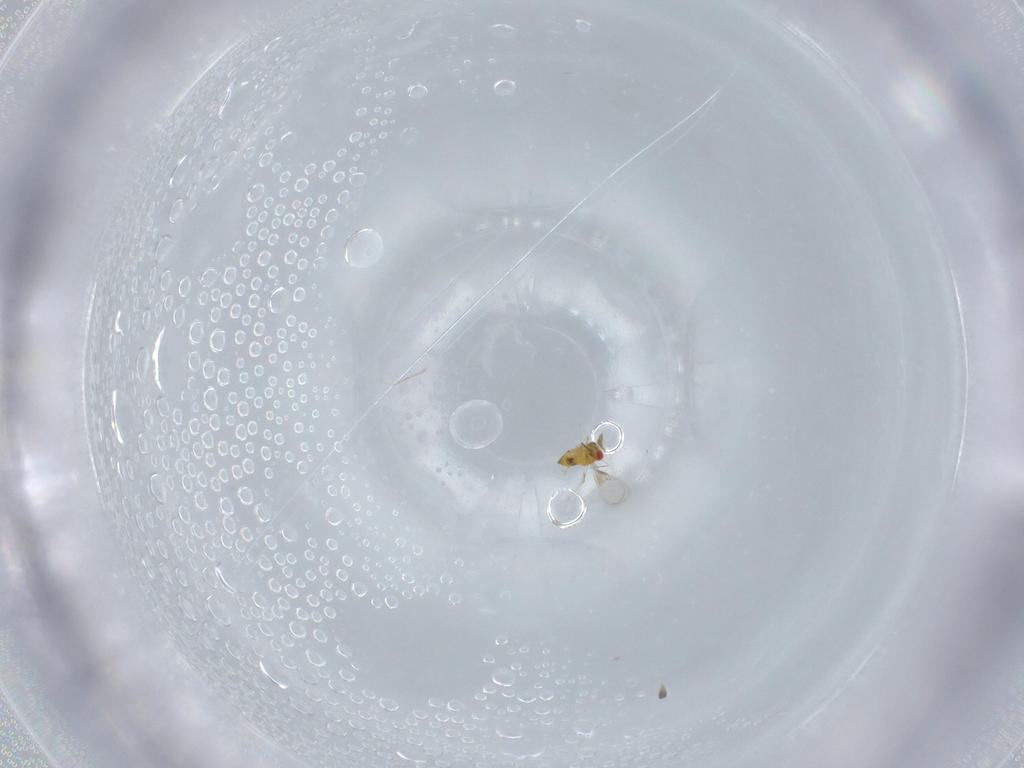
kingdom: Animalia
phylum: Arthropoda
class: Insecta
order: Hymenoptera
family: Trichogrammatidae
